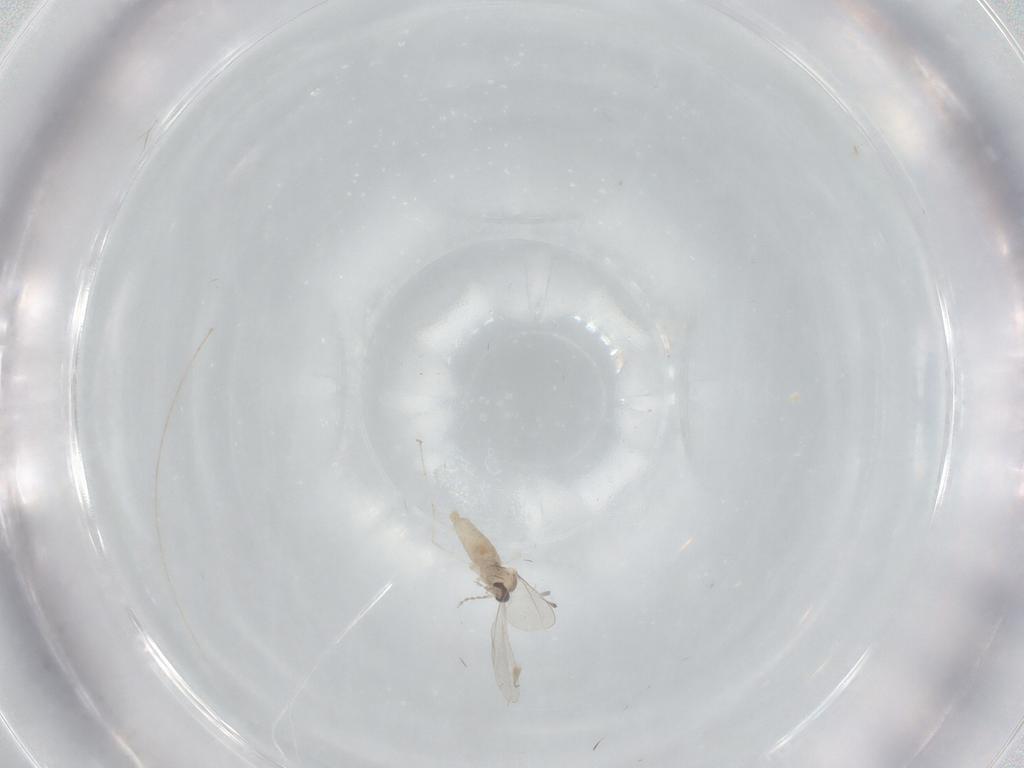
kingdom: Animalia
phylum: Arthropoda
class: Insecta
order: Diptera
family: Cecidomyiidae
